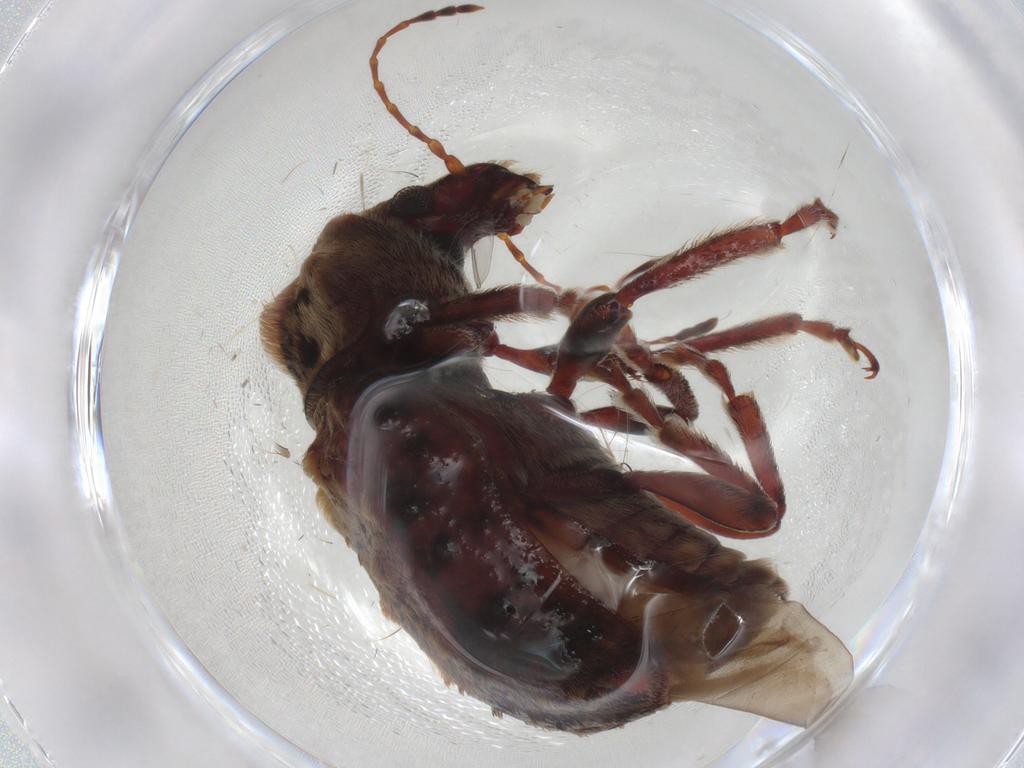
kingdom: Animalia
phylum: Arthropoda
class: Insecta
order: Coleoptera
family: Anthribidae
